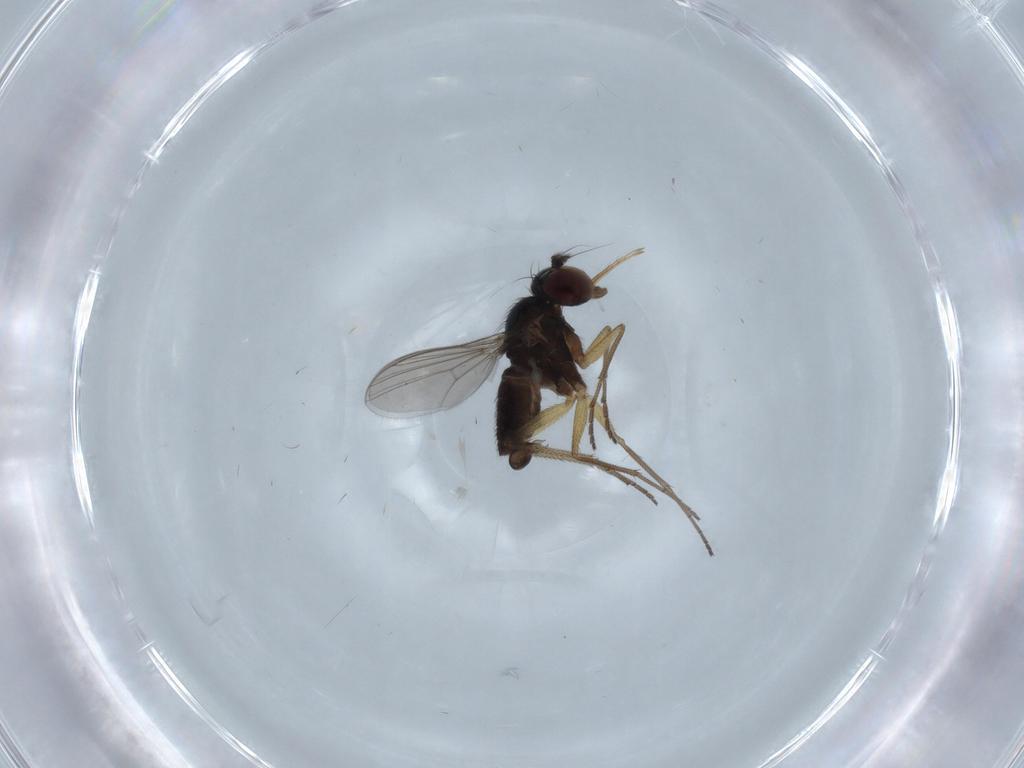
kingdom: Animalia
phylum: Arthropoda
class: Insecta
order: Diptera
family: Dolichopodidae
